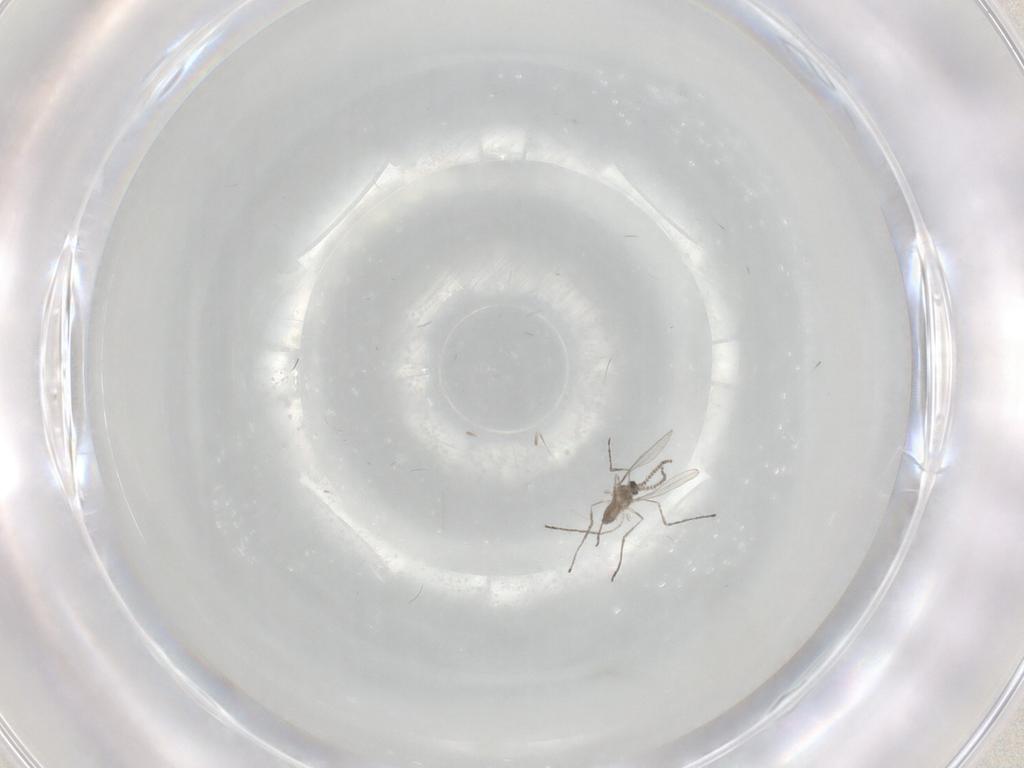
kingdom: Animalia
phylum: Arthropoda
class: Insecta
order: Diptera
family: Cecidomyiidae
